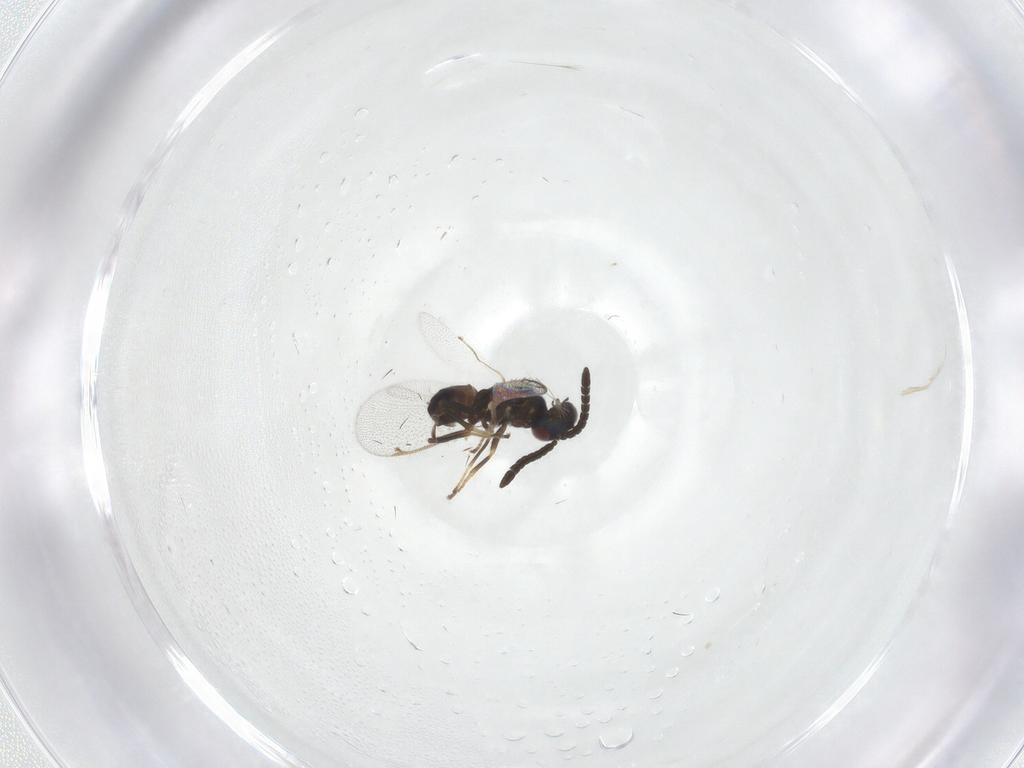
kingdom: Animalia
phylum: Arthropoda
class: Insecta
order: Hymenoptera
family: Torymidae
